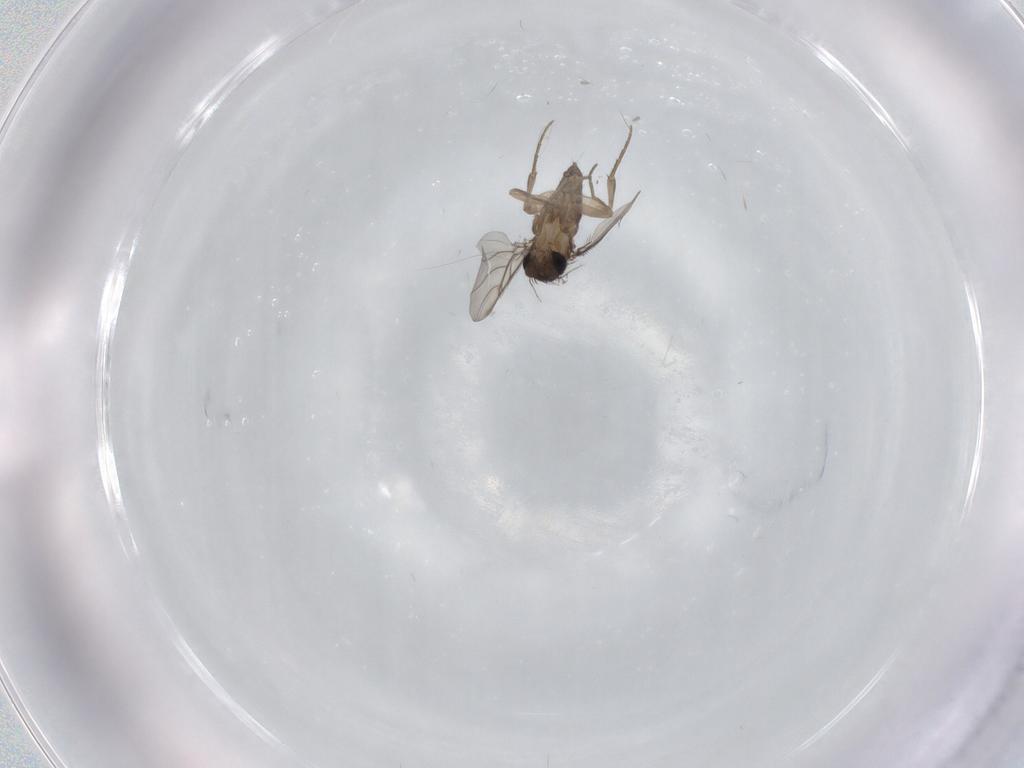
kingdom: Animalia
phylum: Arthropoda
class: Insecta
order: Diptera
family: Phoridae
